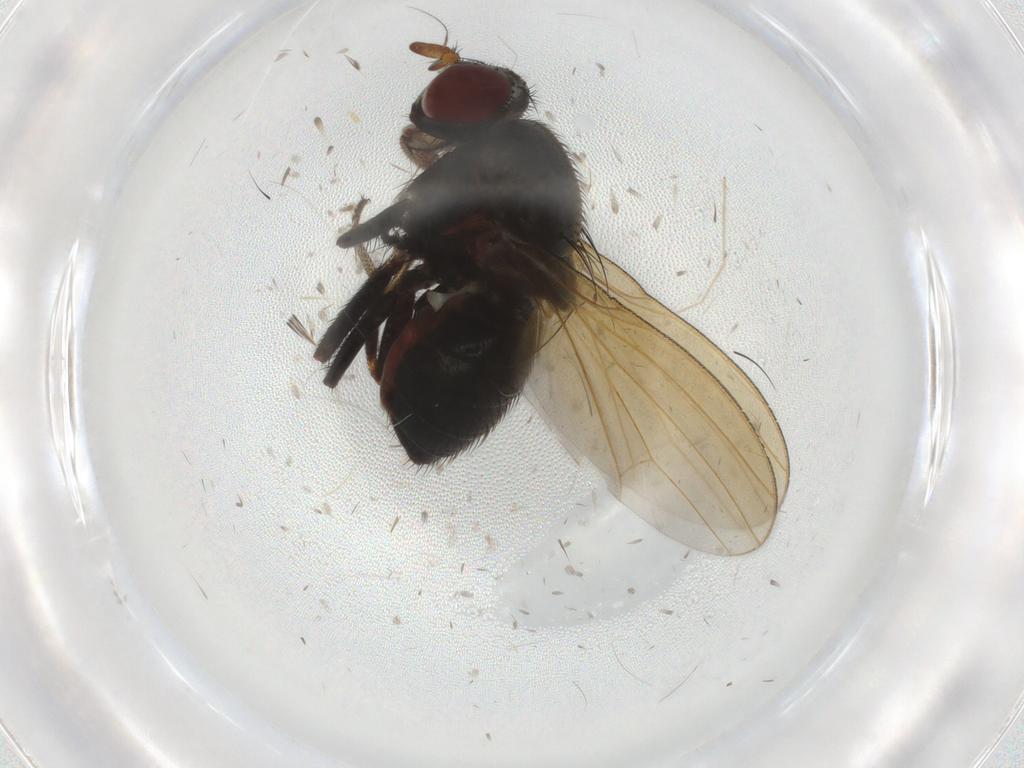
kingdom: Animalia
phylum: Arthropoda
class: Insecta
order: Diptera
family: Lauxaniidae
